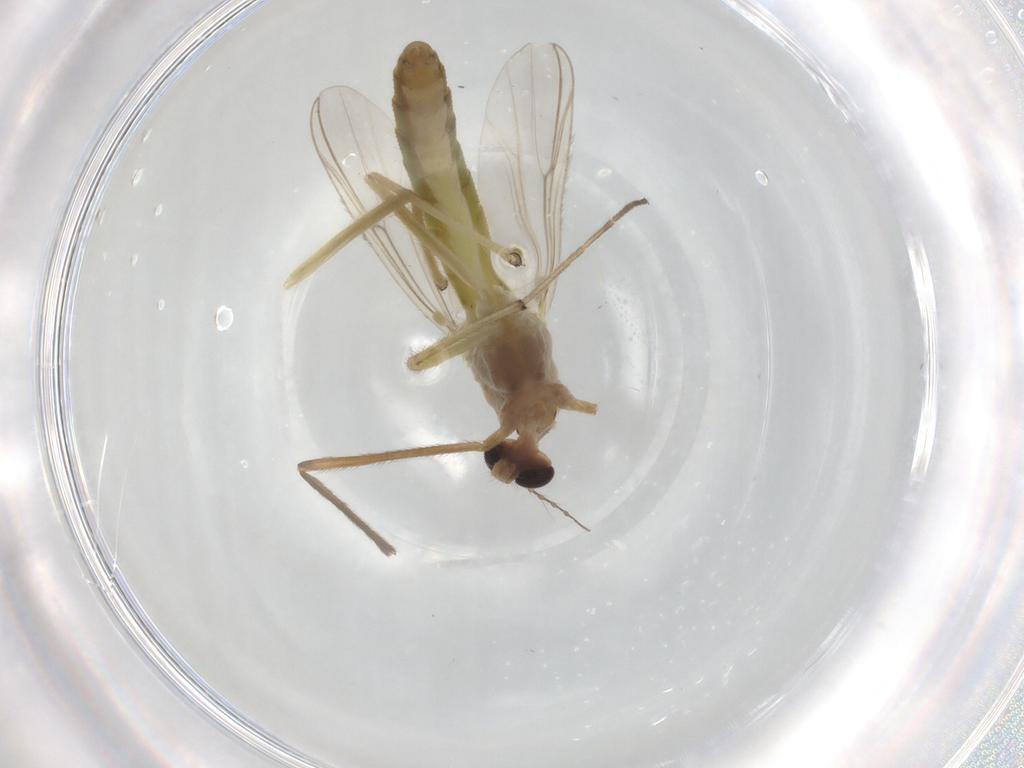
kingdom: Animalia
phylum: Arthropoda
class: Insecta
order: Diptera
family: Chironomidae
